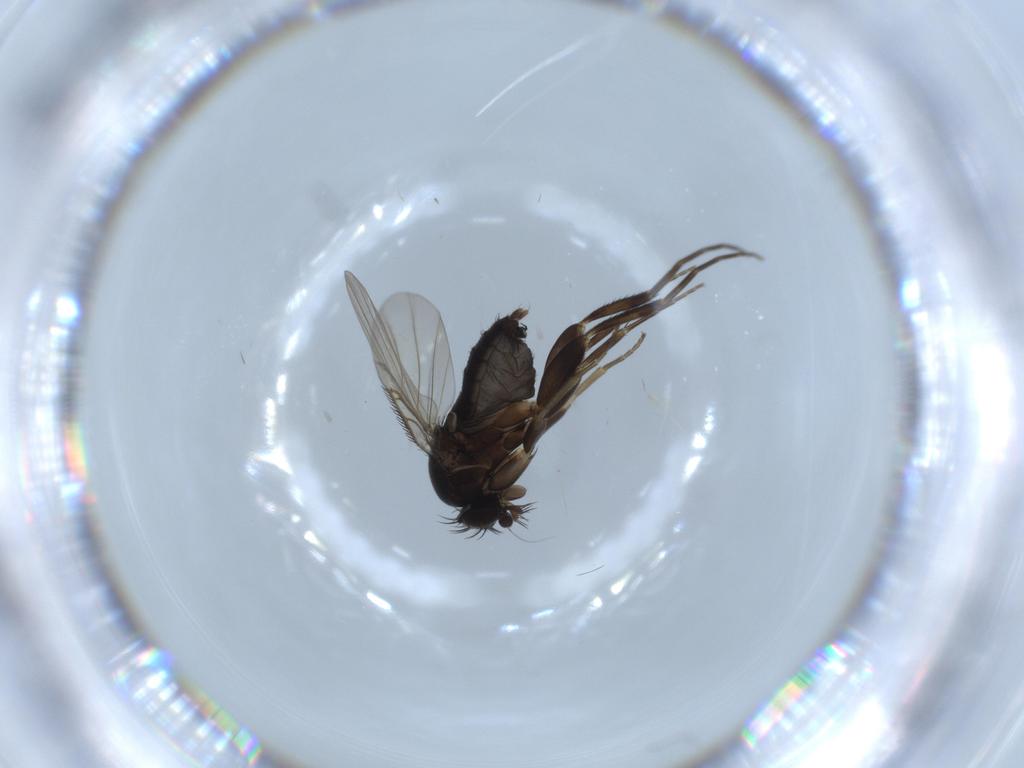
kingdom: Animalia
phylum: Arthropoda
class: Insecta
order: Diptera
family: Phoridae
